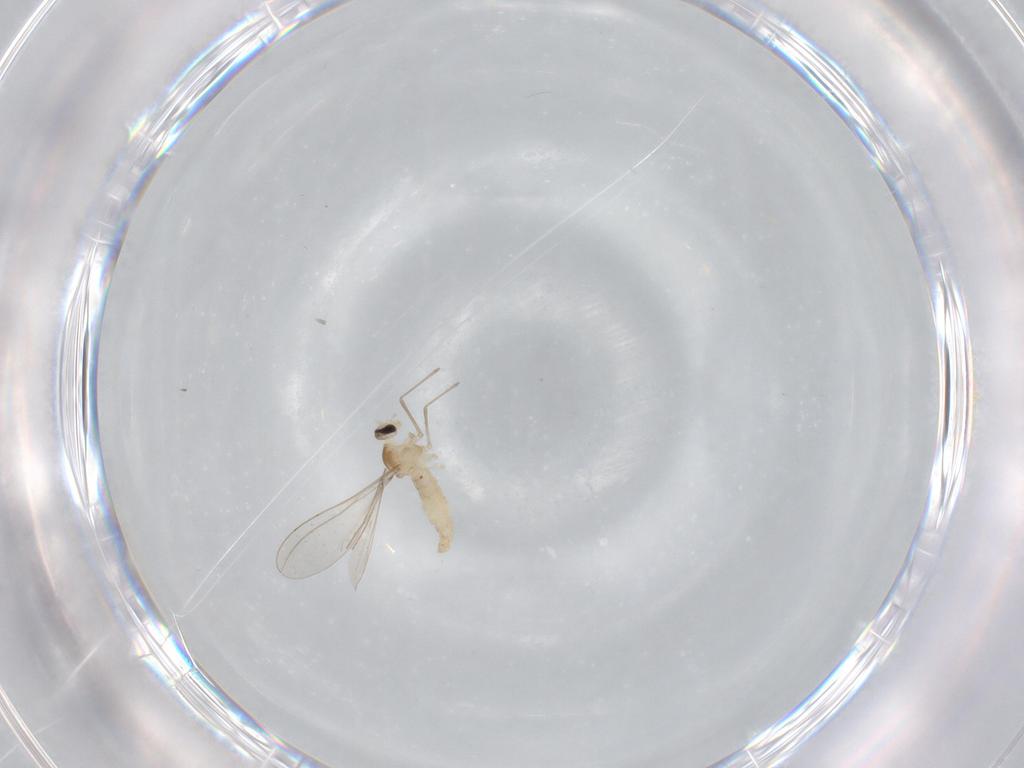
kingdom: Animalia
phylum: Arthropoda
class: Insecta
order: Diptera
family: Cecidomyiidae
